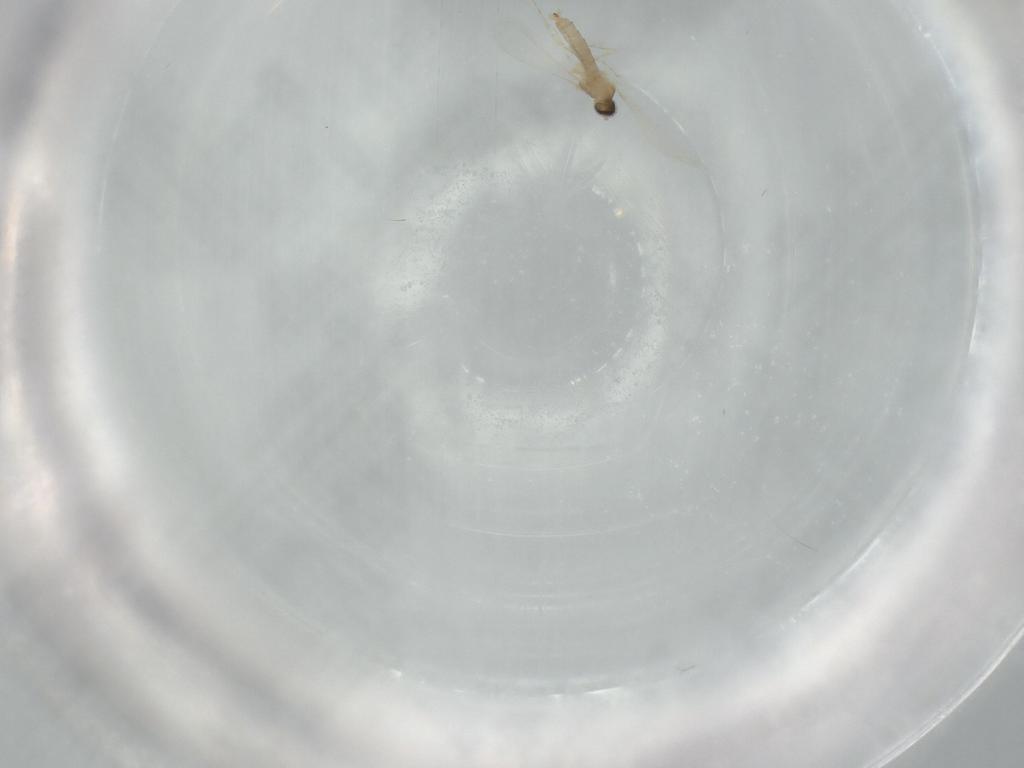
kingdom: Animalia
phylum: Arthropoda
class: Insecta
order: Diptera
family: Cecidomyiidae
